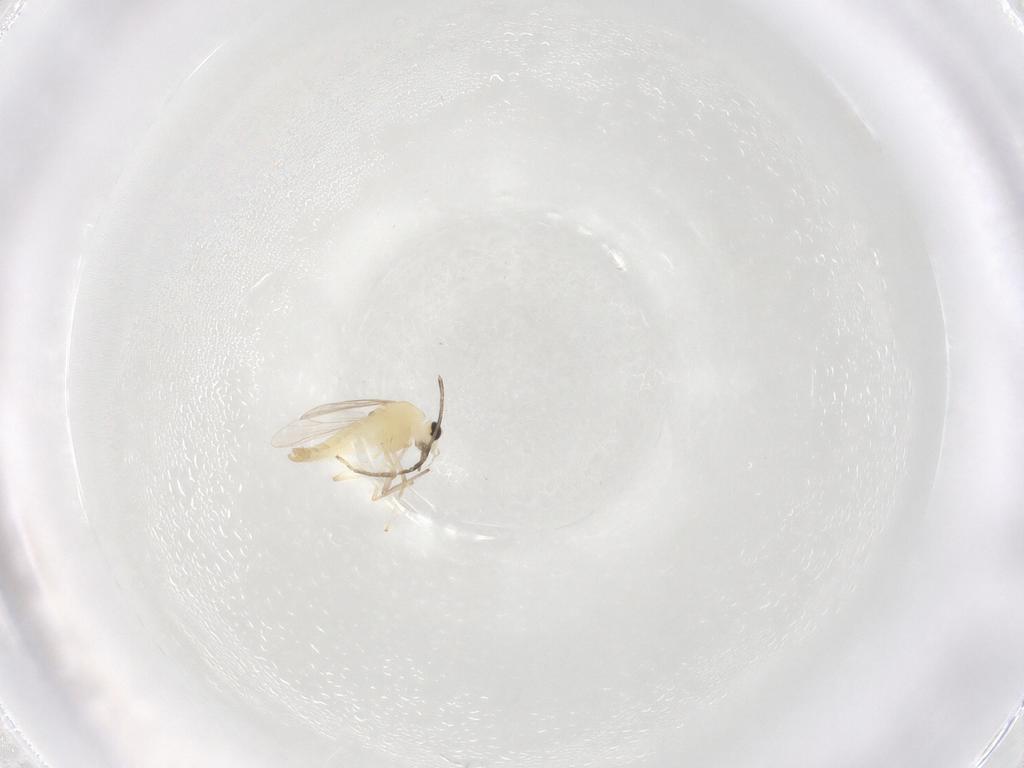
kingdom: Animalia
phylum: Arthropoda
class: Insecta
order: Diptera
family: Chironomidae
